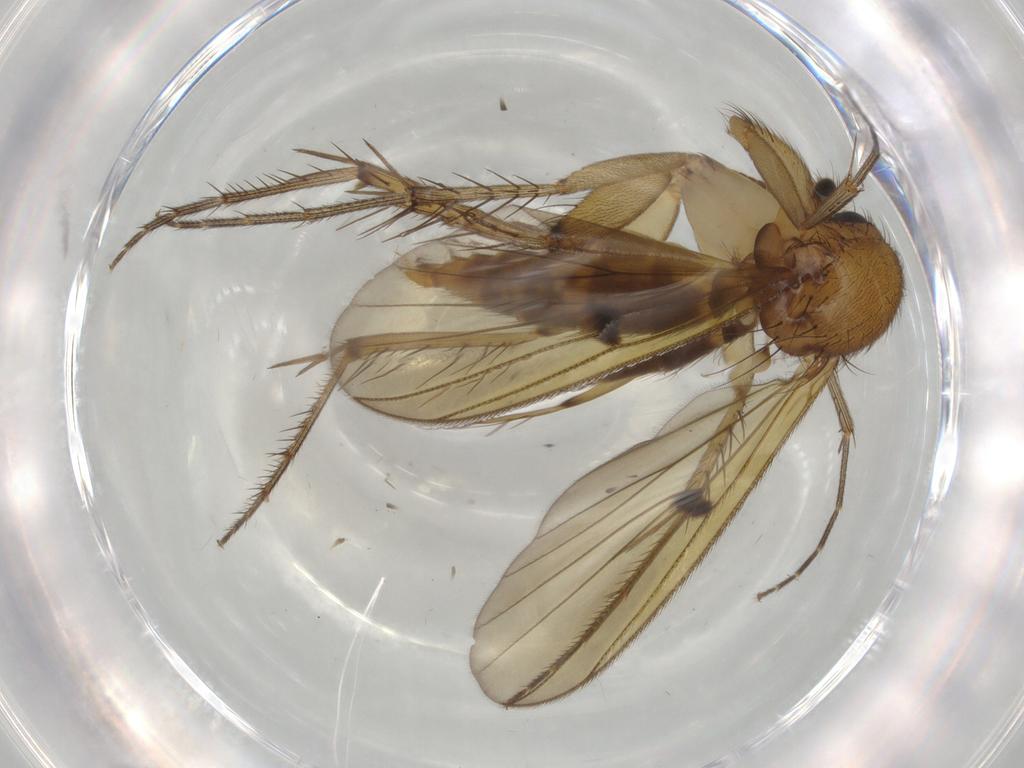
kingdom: Animalia
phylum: Arthropoda
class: Insecta
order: Diptera
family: Mycetophilidae
